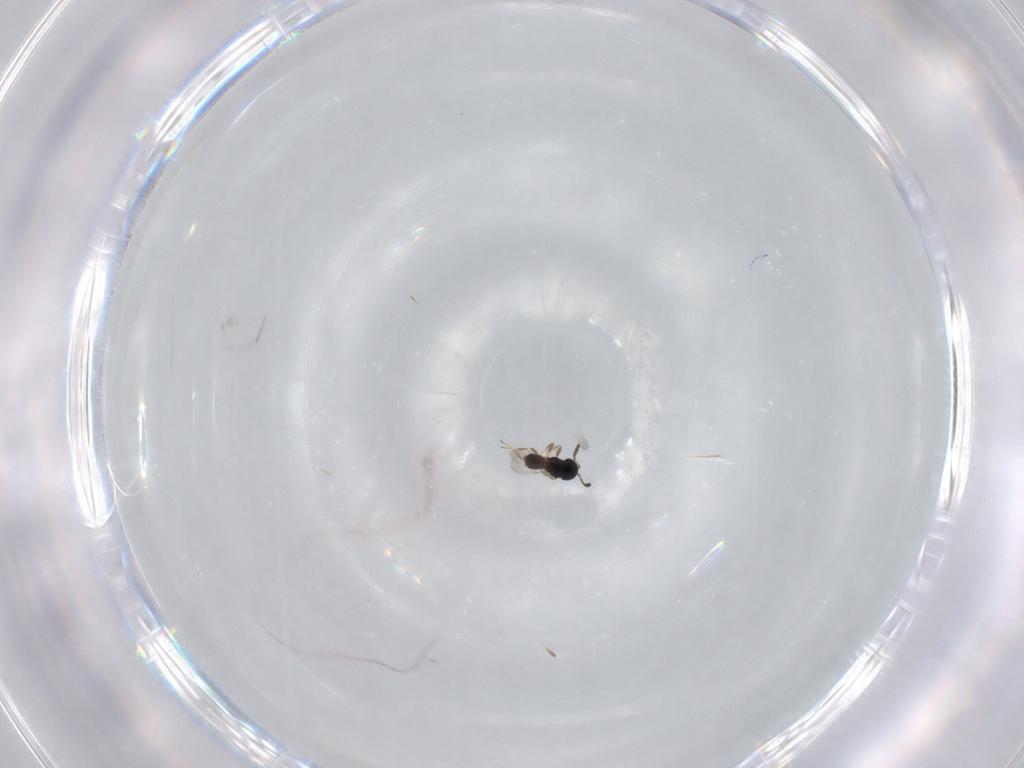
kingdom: Animalia
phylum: Arthropoda
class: Insecta
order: Hymenoptera
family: Scelionidae
